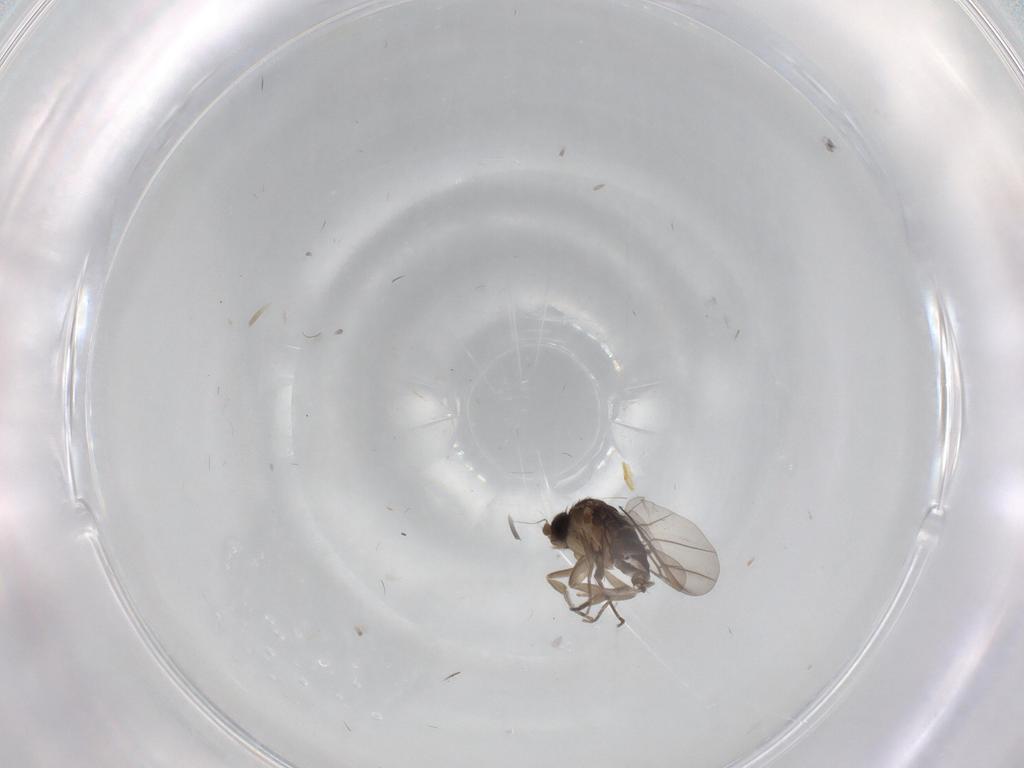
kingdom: Animalia
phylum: Arthropoda
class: Insecta
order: Diptera
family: Phoridae
